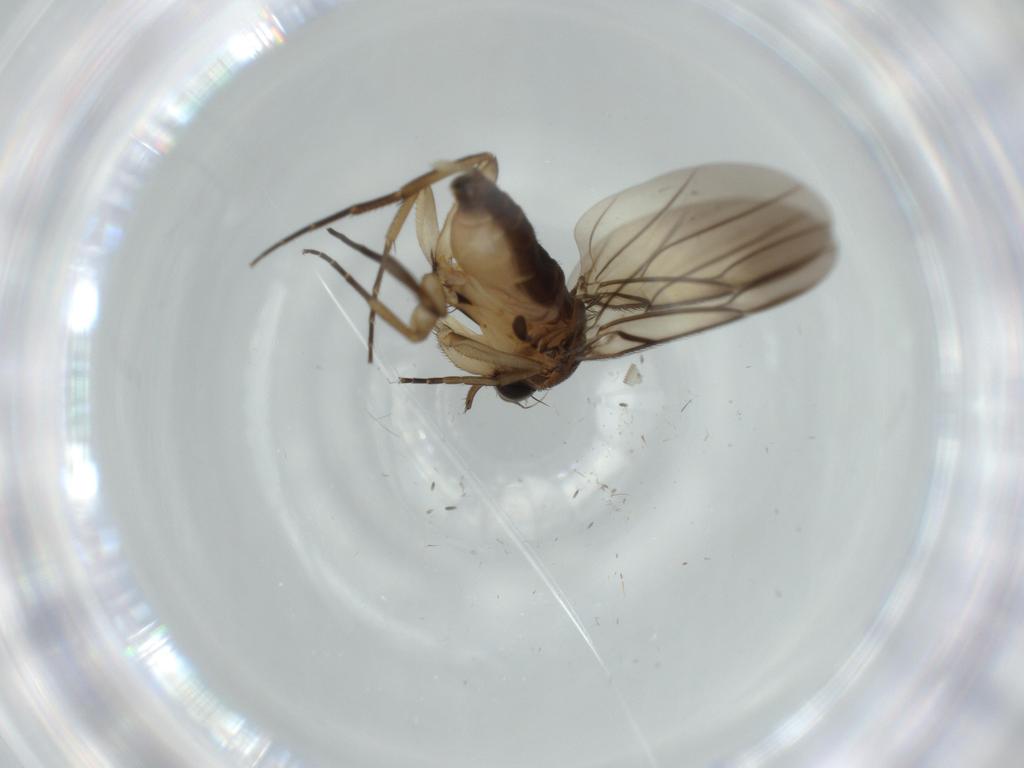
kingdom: Animalia
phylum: Arthropoda
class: Insecta
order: Diptera
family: Phoridae
